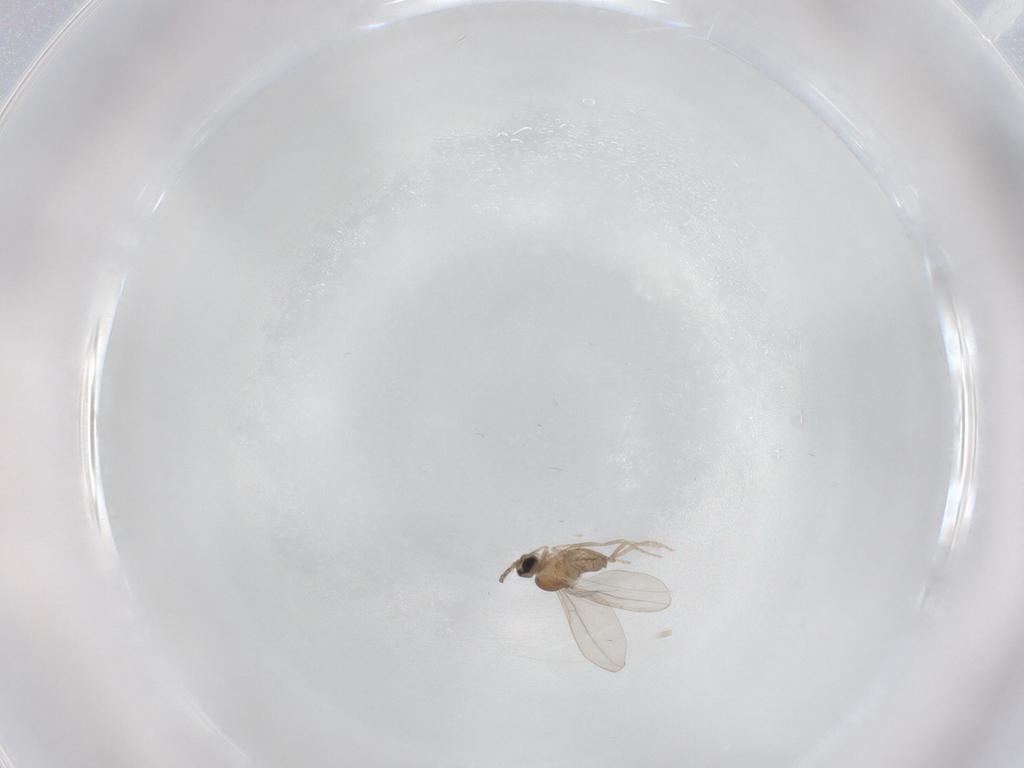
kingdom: Animalia
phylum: Arthropoda
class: Insecta
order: Diptera
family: Cecidomyiidae
